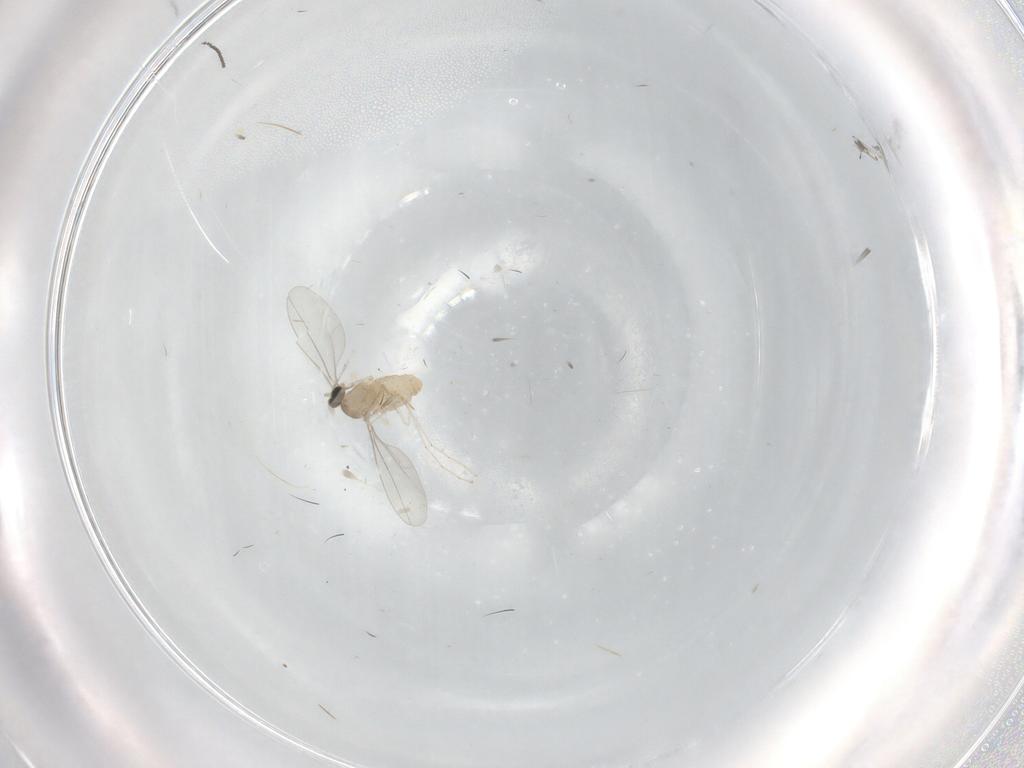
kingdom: Animalia
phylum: Arthropoda
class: Insecta
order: Diptera
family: Cecidomyiidae
